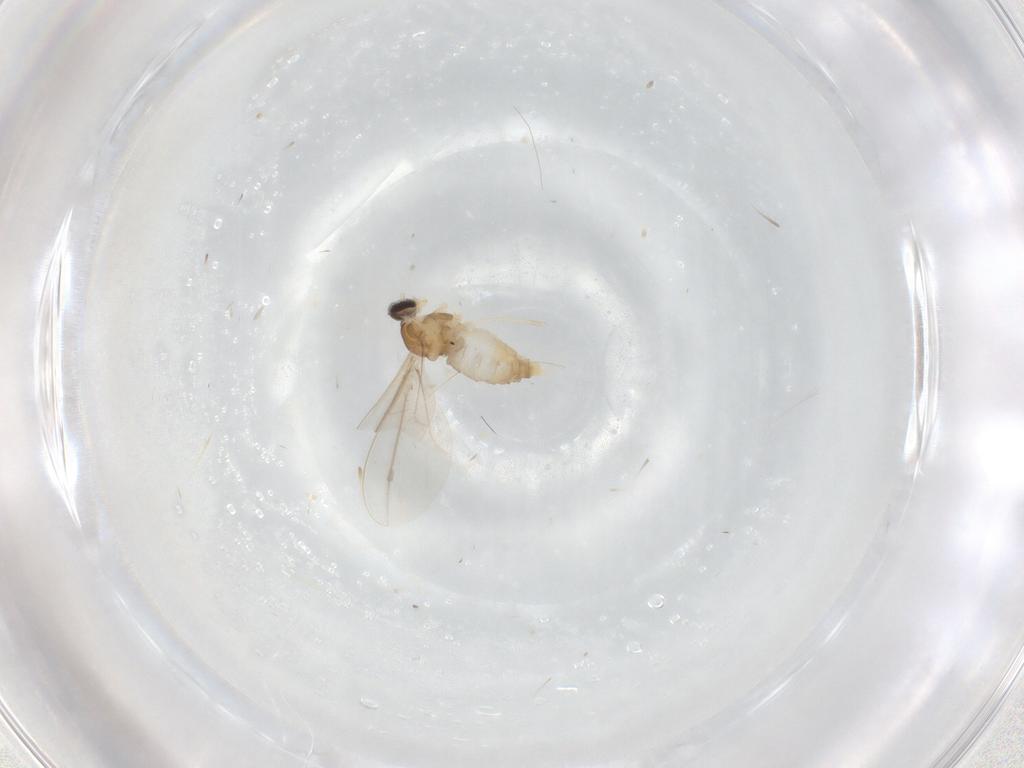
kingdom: Animalia
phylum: Arthropoda
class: Insecta
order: Diptera
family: Cecidomyiidae
